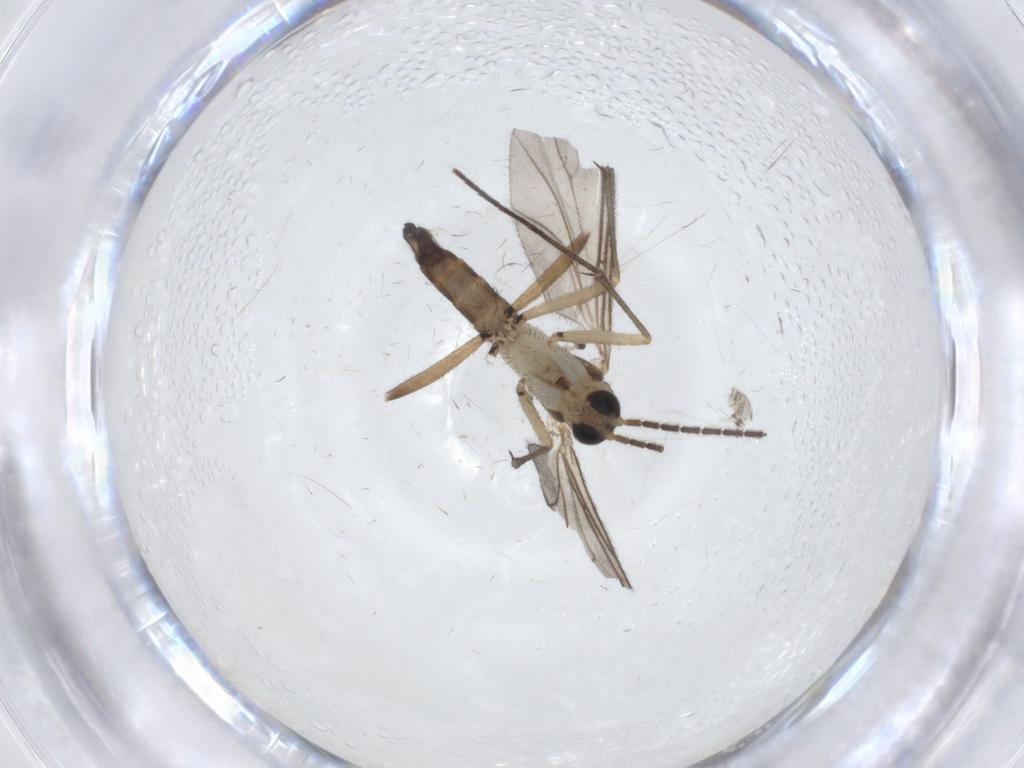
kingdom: Animalia
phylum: Arthropoda
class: Insecta
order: Diptera
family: Sciaridae
